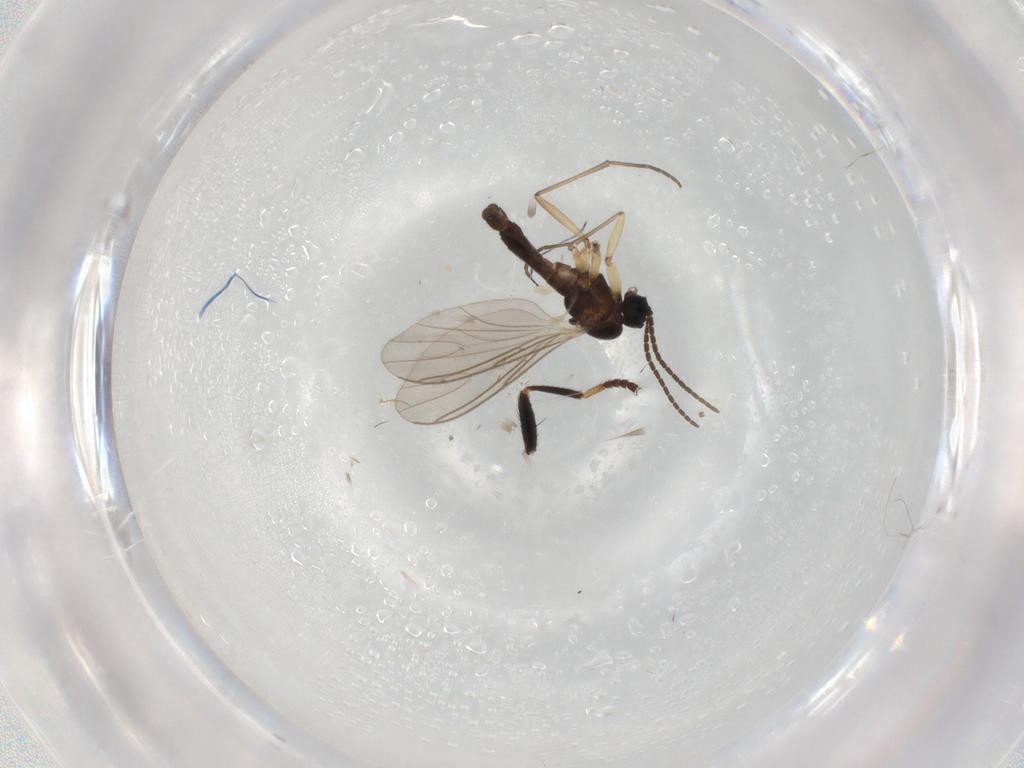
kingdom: Animalia
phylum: Arthropoda
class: Insecta
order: Diptera
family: Sciaridae
